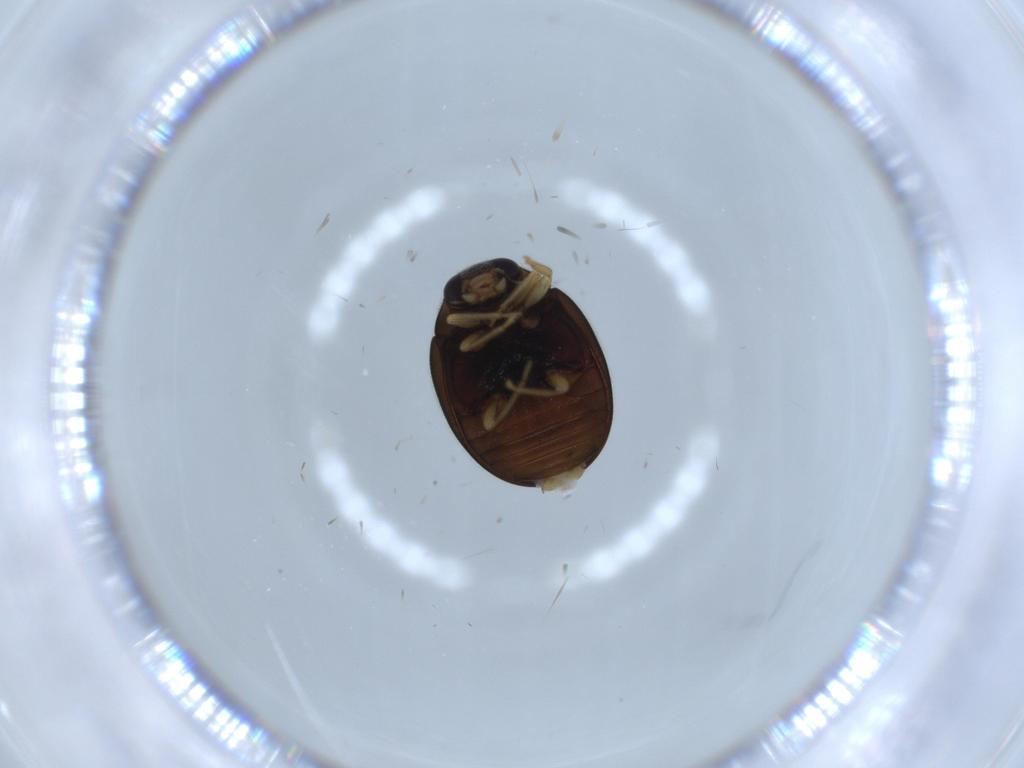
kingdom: Animalia
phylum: Arthropoda
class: Insecta
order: Coleoptera
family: Coccinellidae
